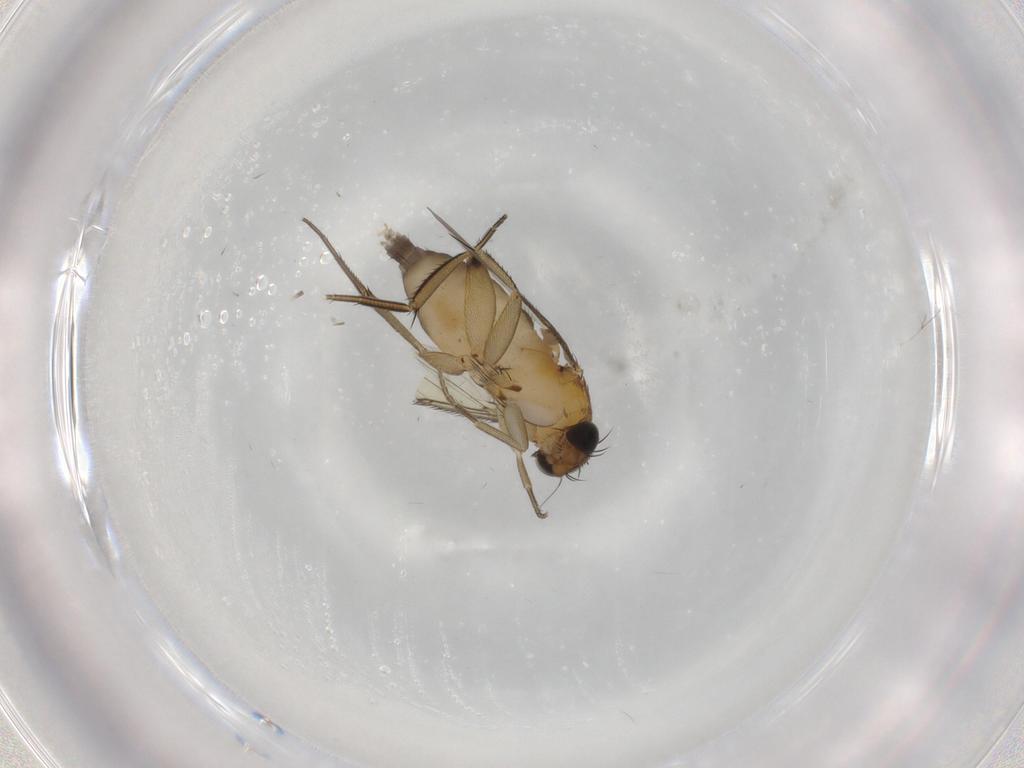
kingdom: Animalia
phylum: Arthropoda
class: Insecta
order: Diptera
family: Phoridae
